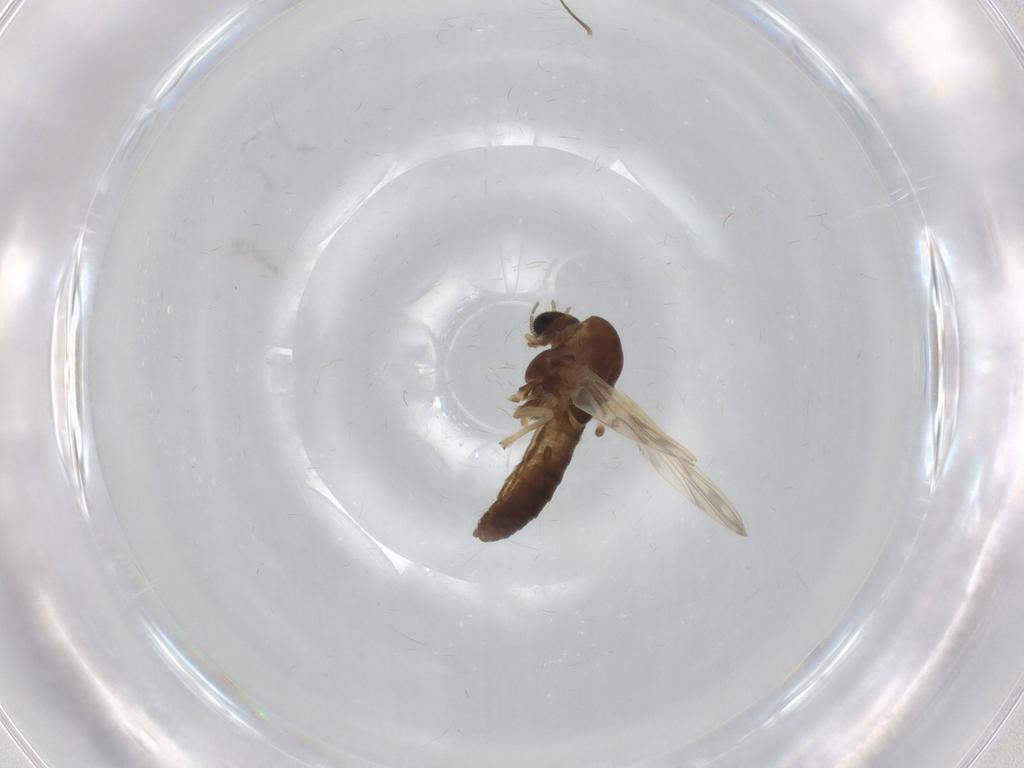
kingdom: Animalia
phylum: Arthropoda
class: Insecta
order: Diptera
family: Chironomidae
